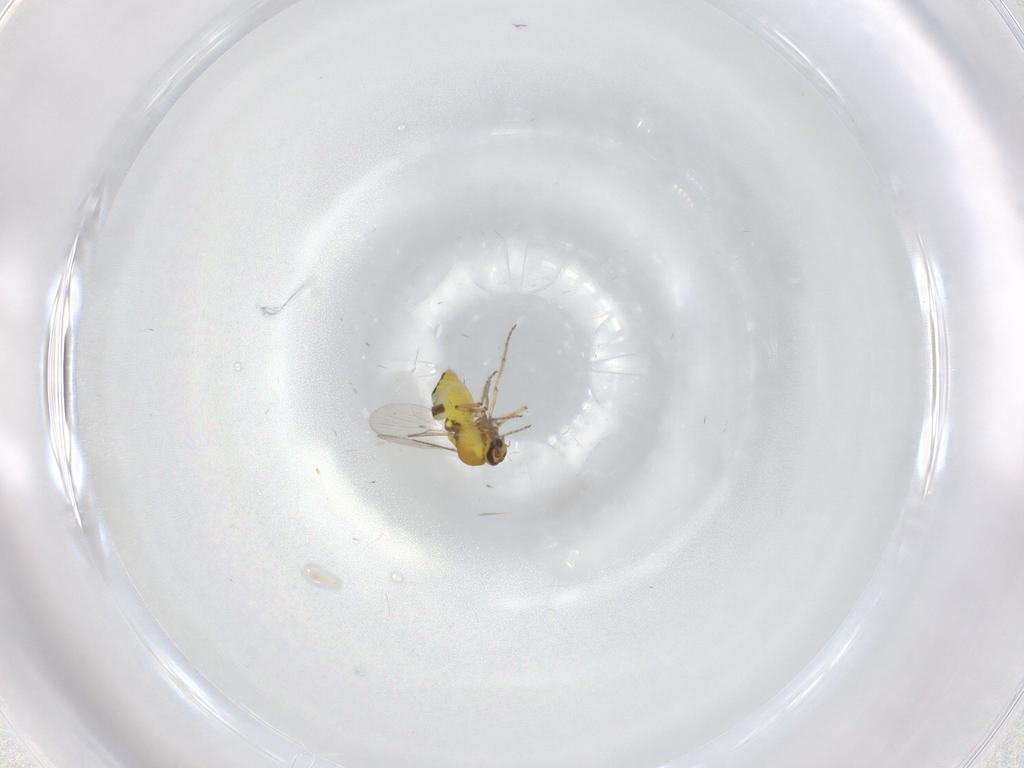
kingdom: Animalia
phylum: Arthropoda
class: Insecta
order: Diptera
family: Ceratopogonidae
